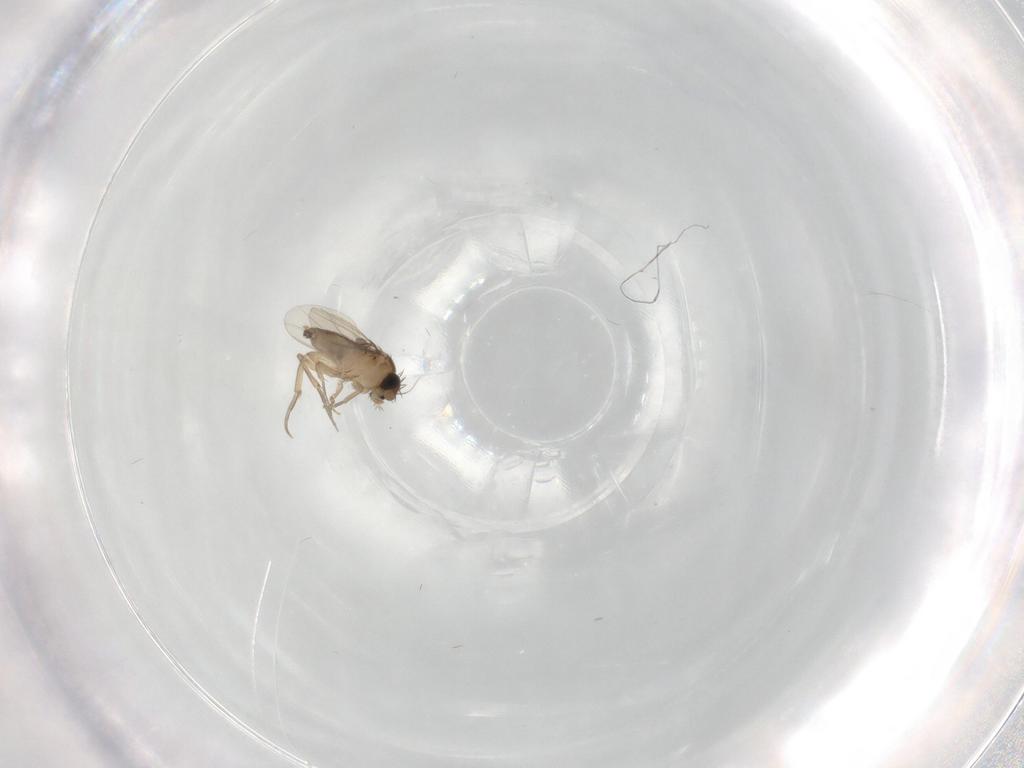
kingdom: Animalia
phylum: Arthropoda
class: Insecta
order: Diptera
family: Phoridae
